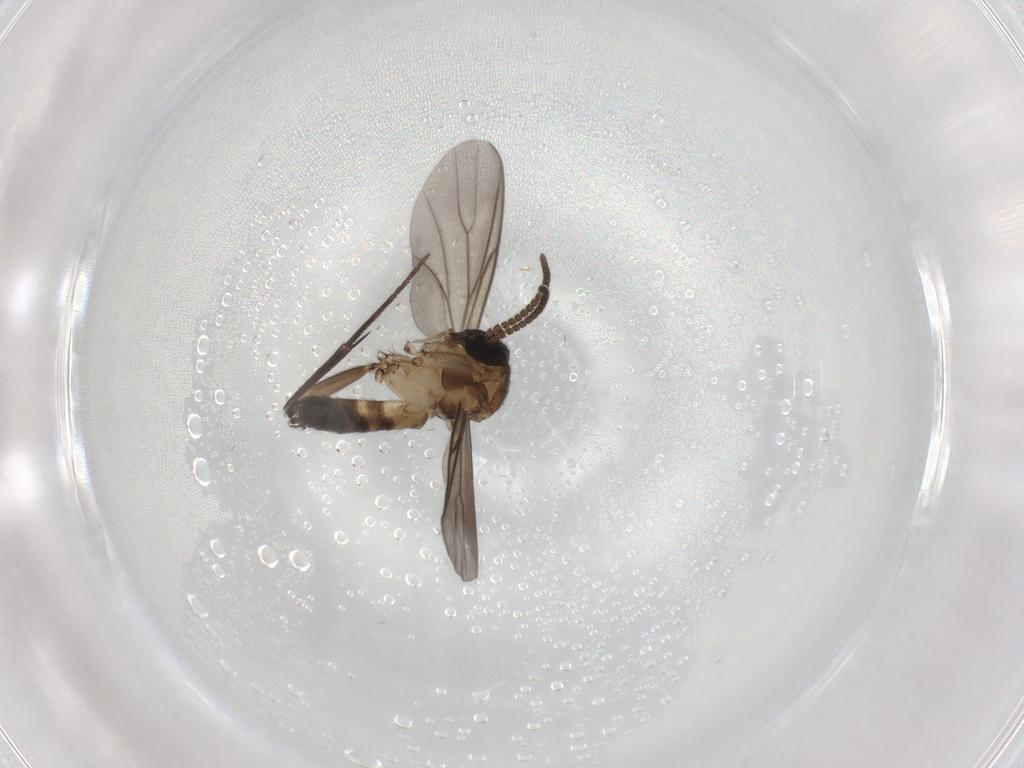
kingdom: Animalia
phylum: Arthropoda
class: Insecta
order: Diptera
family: Mycetophilidae
